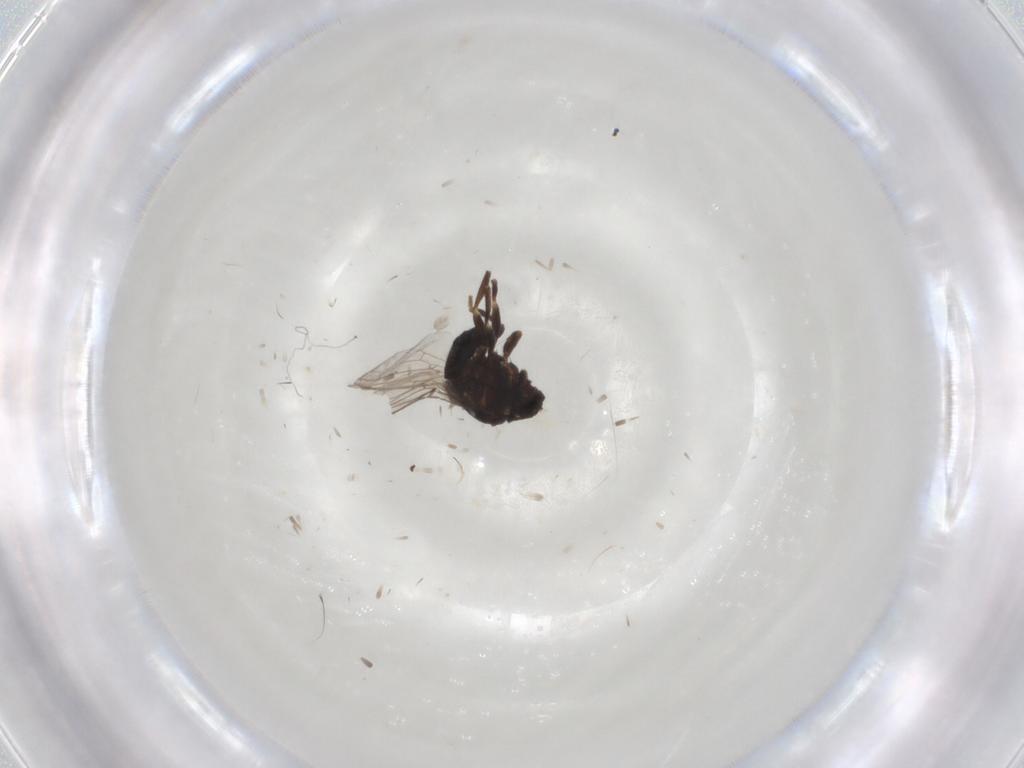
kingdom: Animalia
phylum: Arthropoda
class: Insecta
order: Diptera
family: Chloropidae
